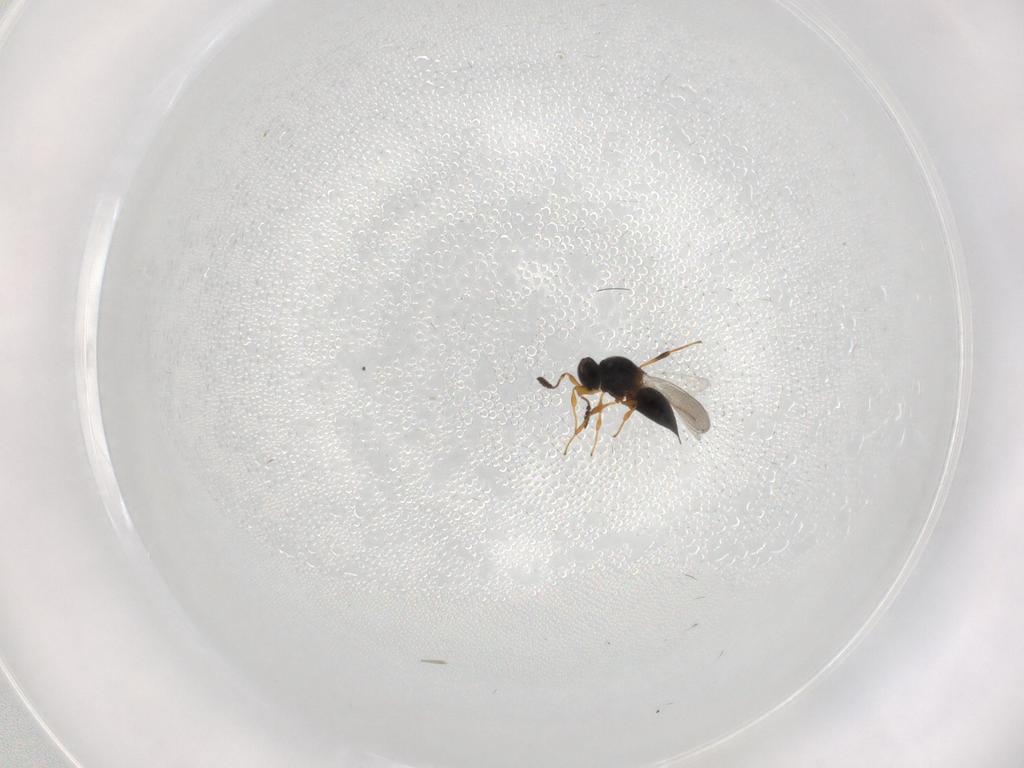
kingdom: Animalia
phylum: Arthropoda
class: Insecta
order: Hymenoptera
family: Platygastridae
